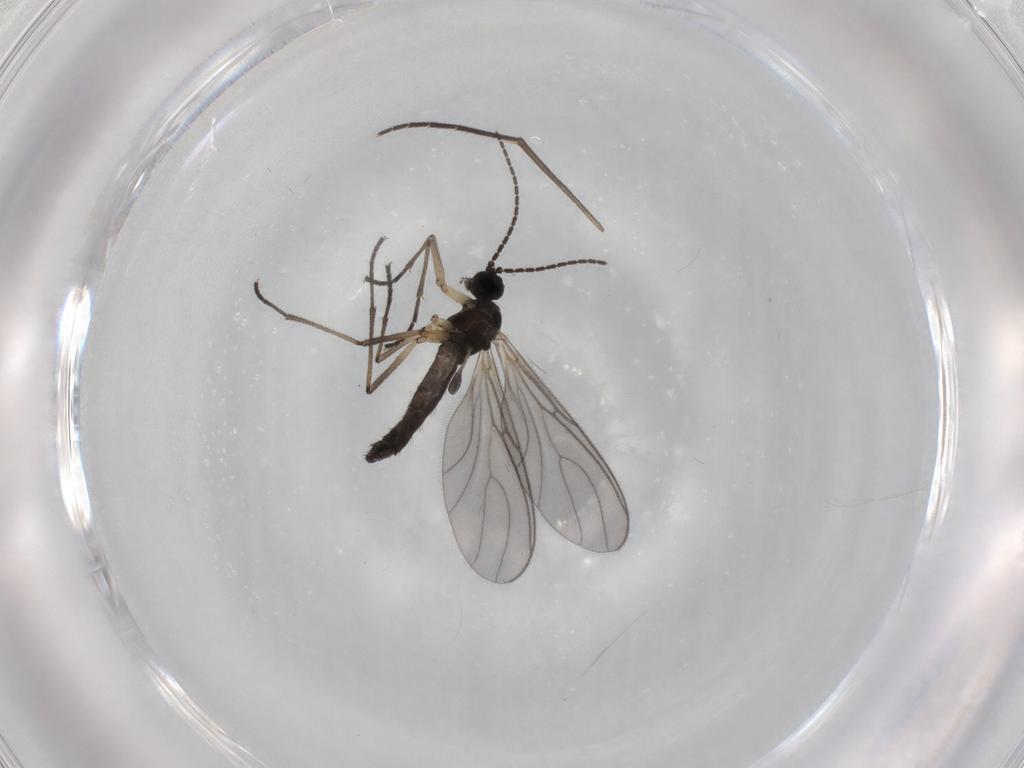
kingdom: Animalia
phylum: Arthropoda
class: Insecta
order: Diptera
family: Sciaridae
